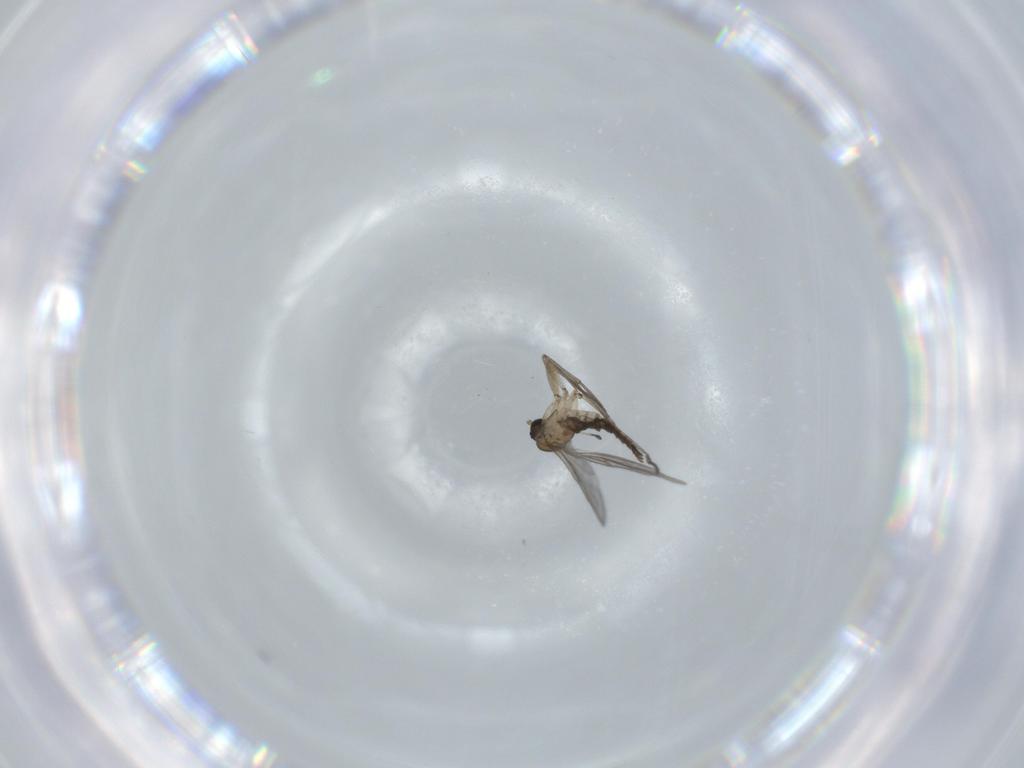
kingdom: Animalia
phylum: Arthropoda
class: Insecta
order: Diptera
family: Sciaridae
